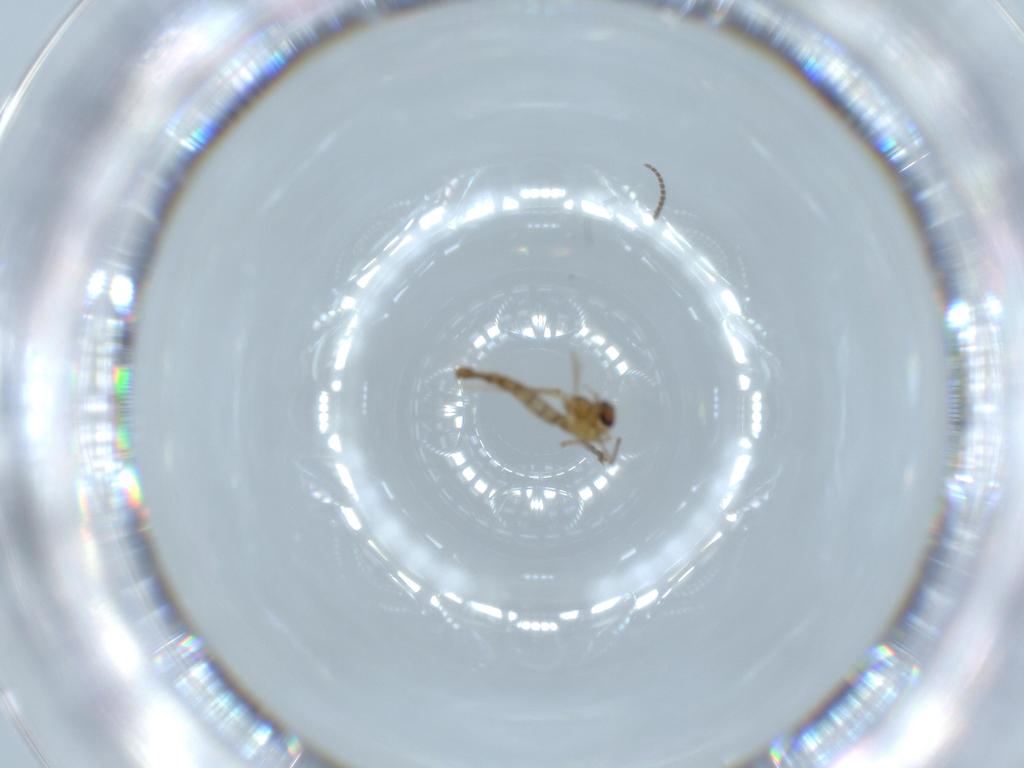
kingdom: Animalia
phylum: Arthropoda
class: Insecta
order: Diptera
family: Chironomidae
